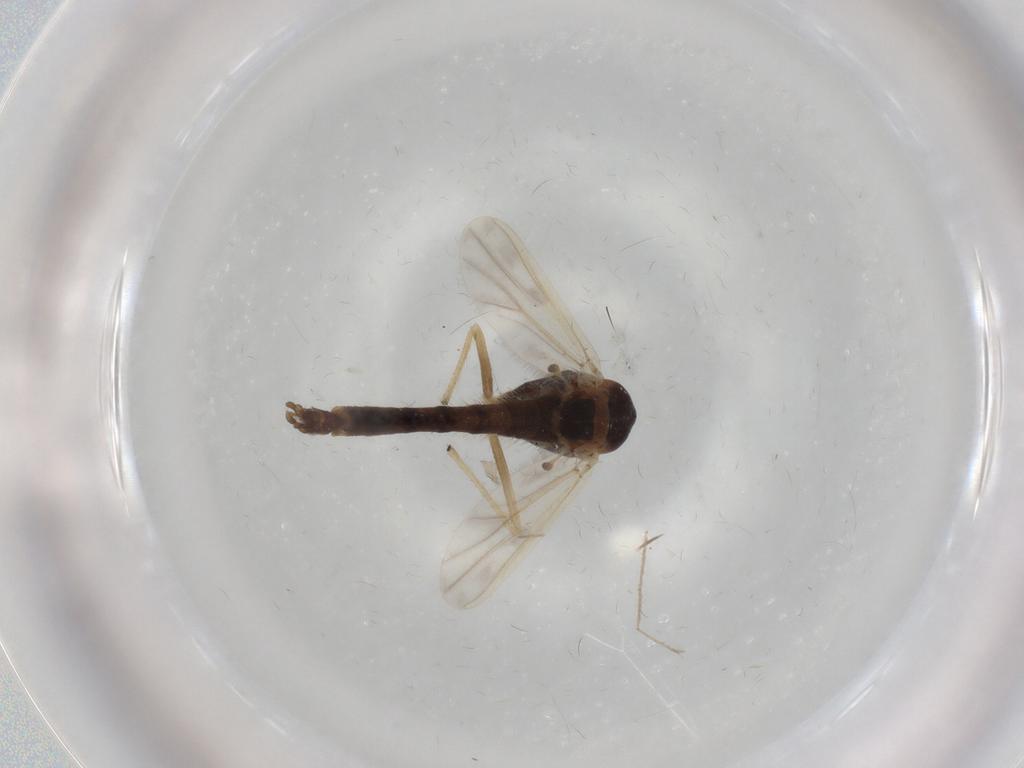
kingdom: Animalia
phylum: Arthropoda
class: Insecta
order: Diptera
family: Chironomidae
